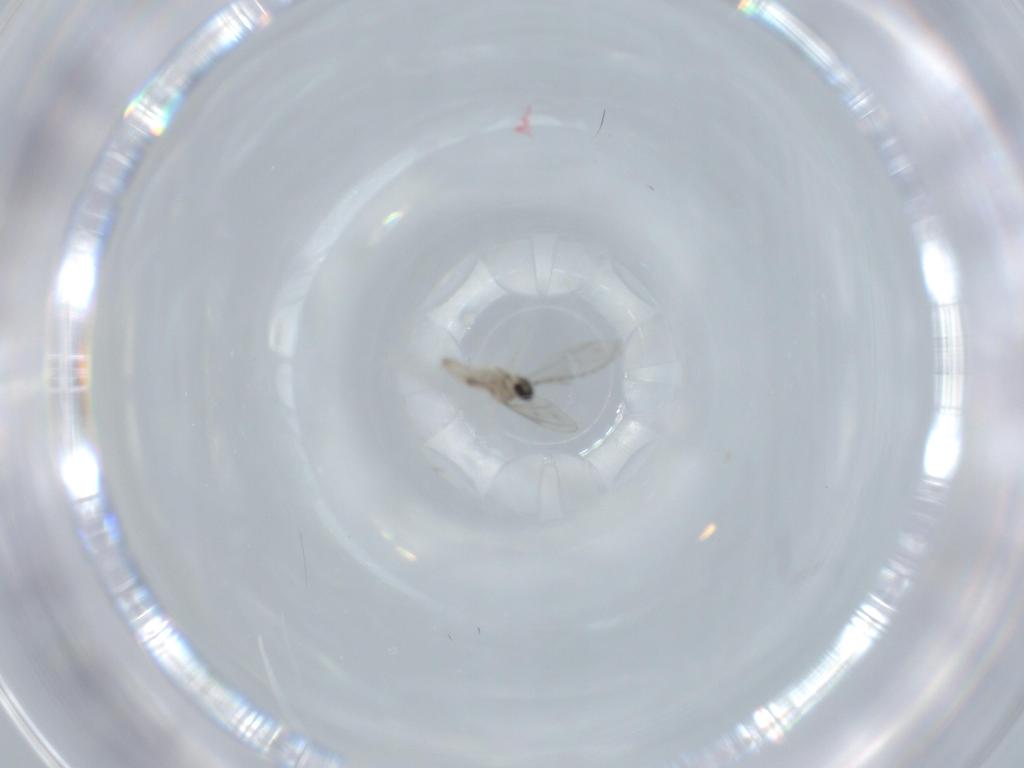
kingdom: Animalia
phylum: Arthropoda
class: Insecta
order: Diptera
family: Cecidomyiidae
